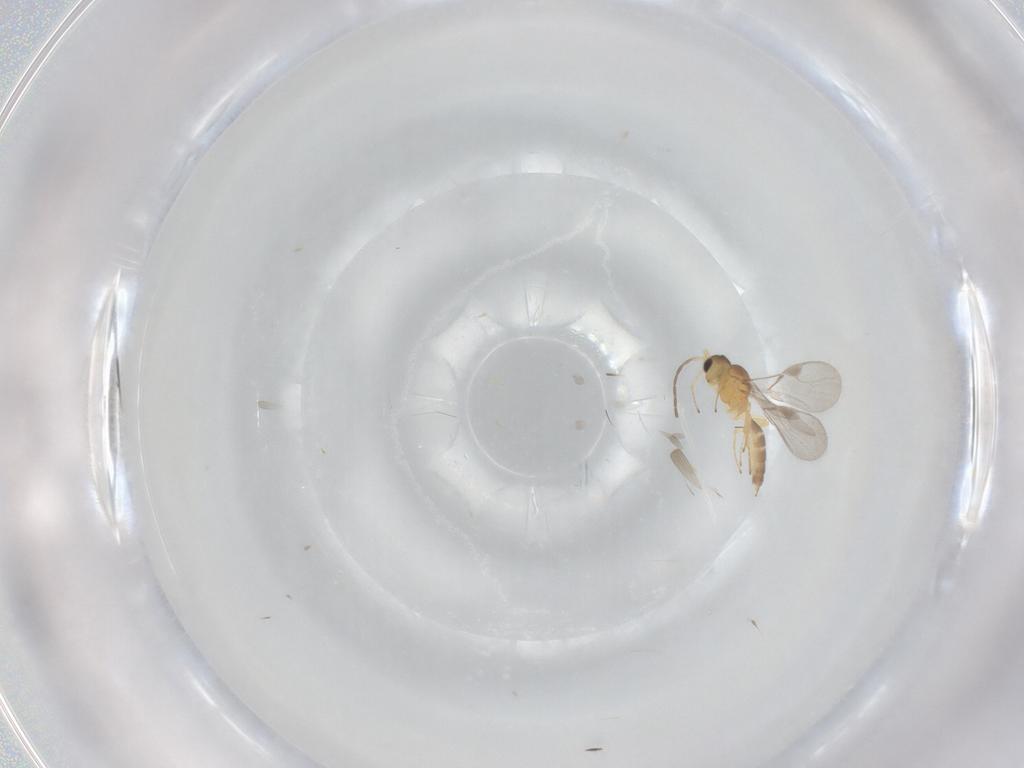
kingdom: Animalia
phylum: Arthropoda
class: Insecta
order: Hymenoptera
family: Braconidae
